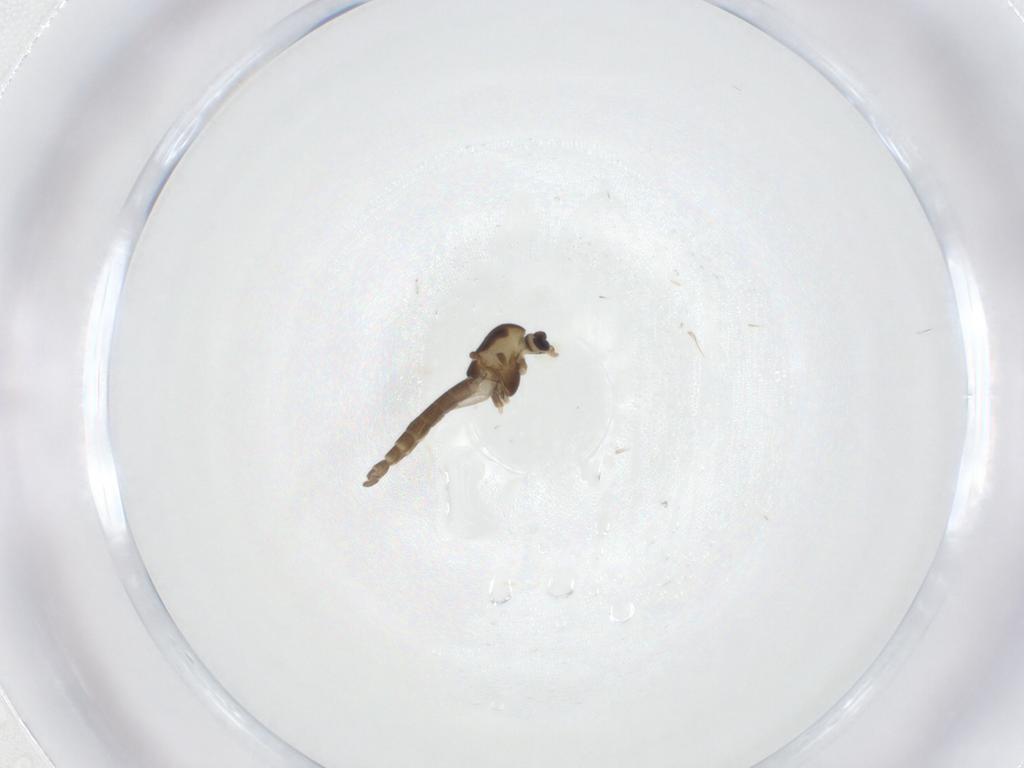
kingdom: Animalia
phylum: Arthropoda
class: Insecta
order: Diptera
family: Chironomidae
